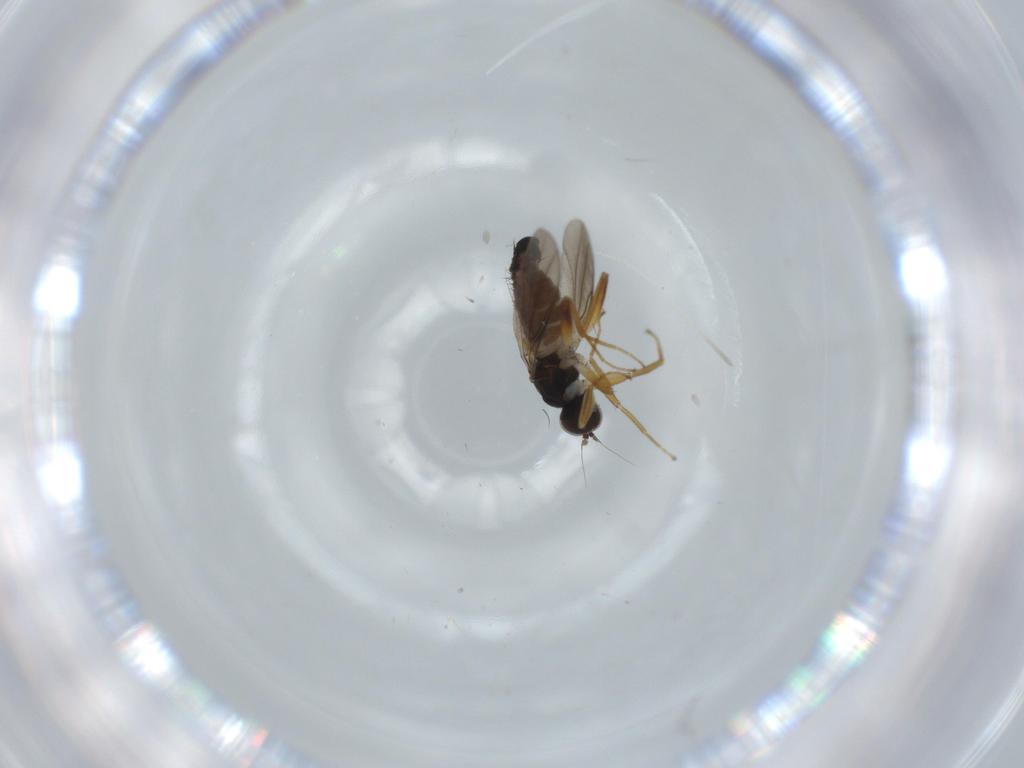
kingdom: Animalia
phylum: Arthropoda
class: Insecta
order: Diptera
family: Hybotidae
